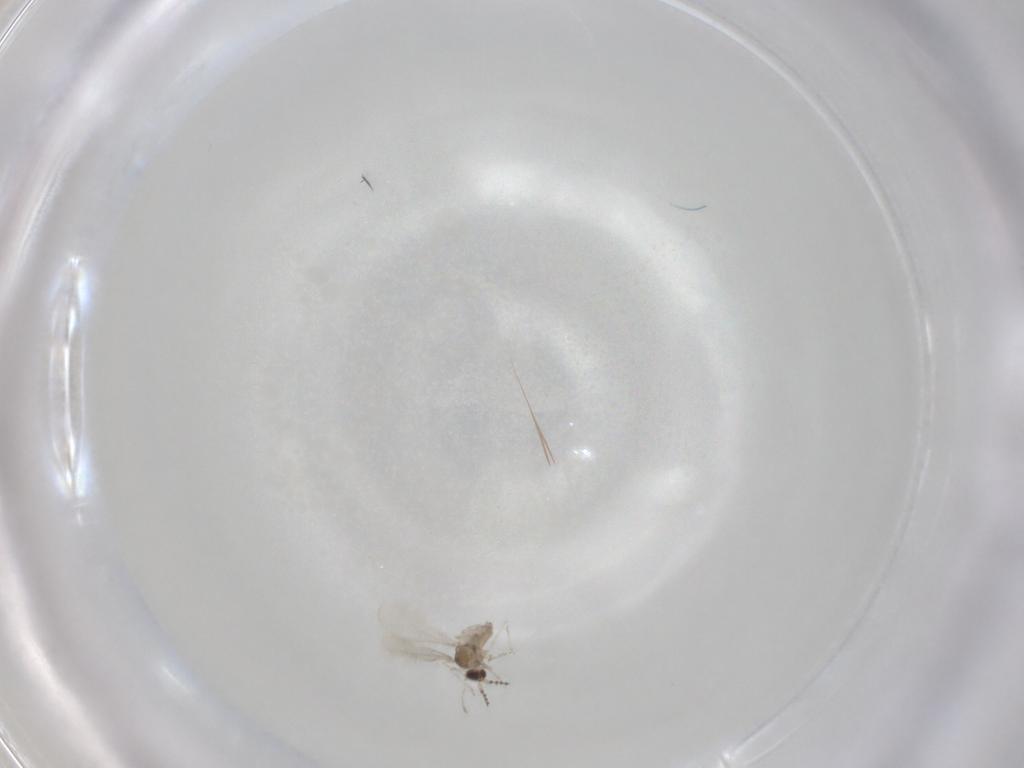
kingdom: Animalia
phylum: Arthropoda
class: Insecta
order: Diptera
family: Cecidomyiidae
